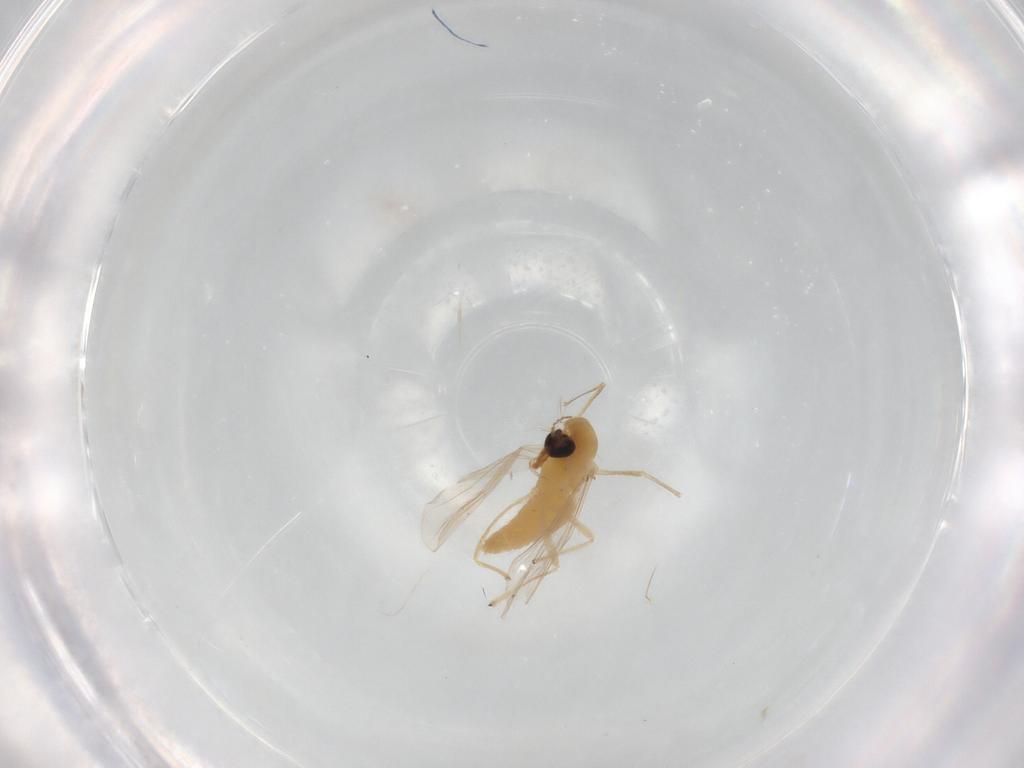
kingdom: Animalia
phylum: Arthropoda
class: Insecta
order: Diptera
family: Chironomidae
